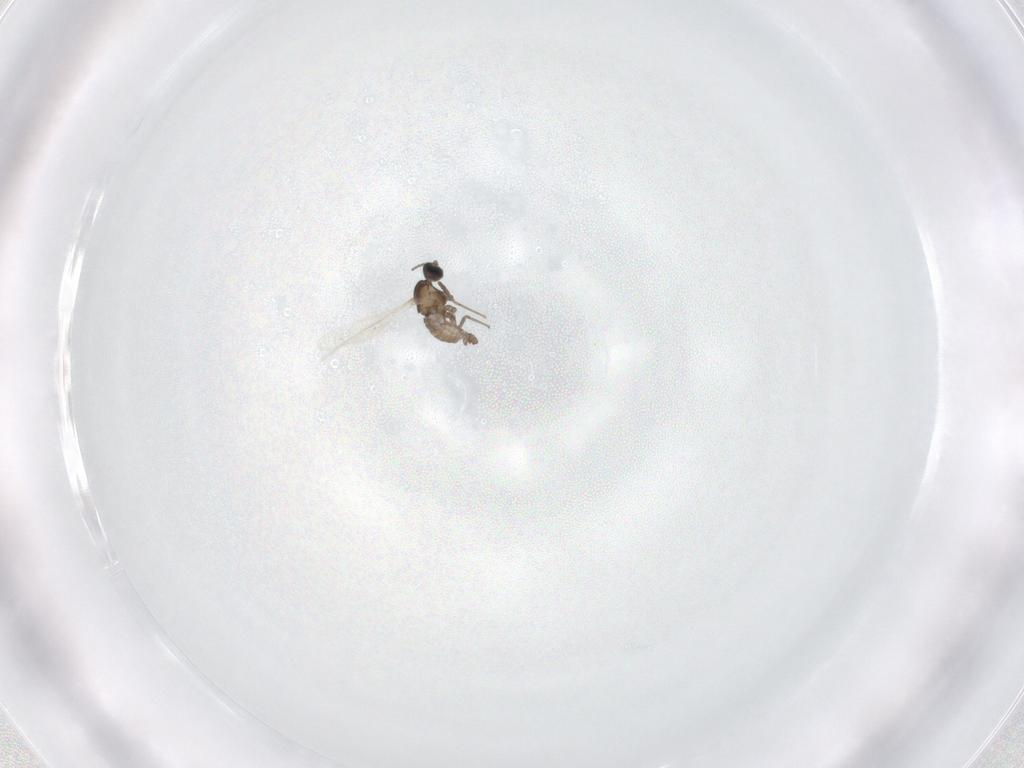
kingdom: Animalia
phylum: Arthropoda
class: Insecta
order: Diptera
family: Cecidomyiidae
